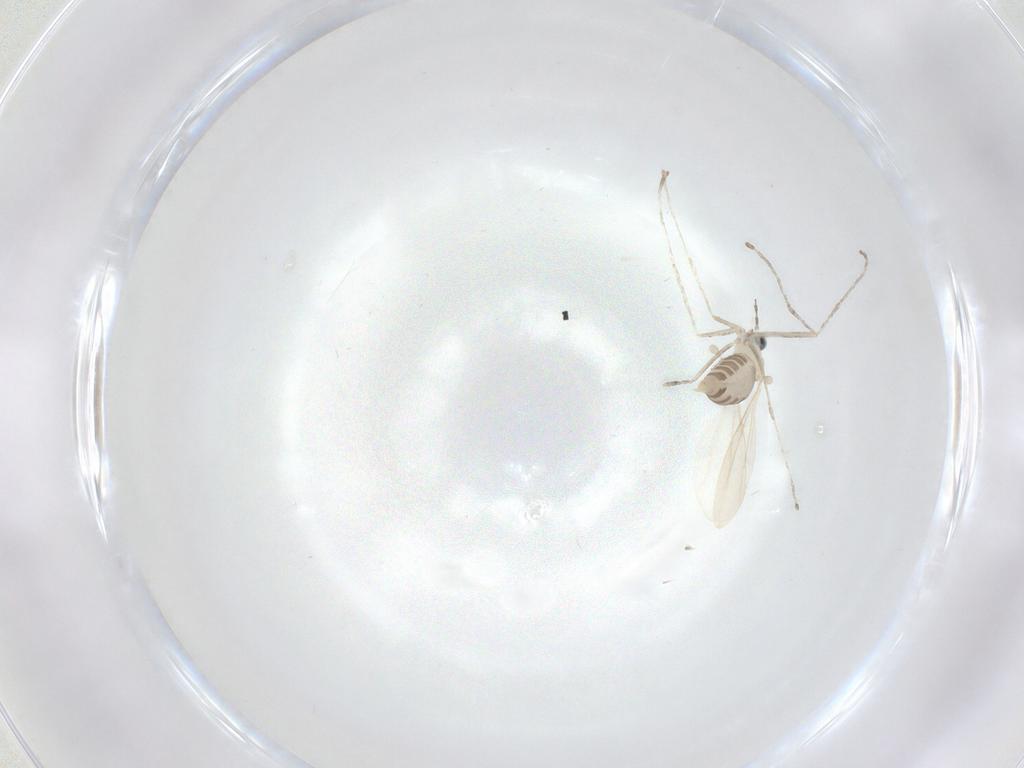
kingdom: Animalia
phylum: Arthropoda
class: Insecta
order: Diptera
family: Cecidomyiidae
